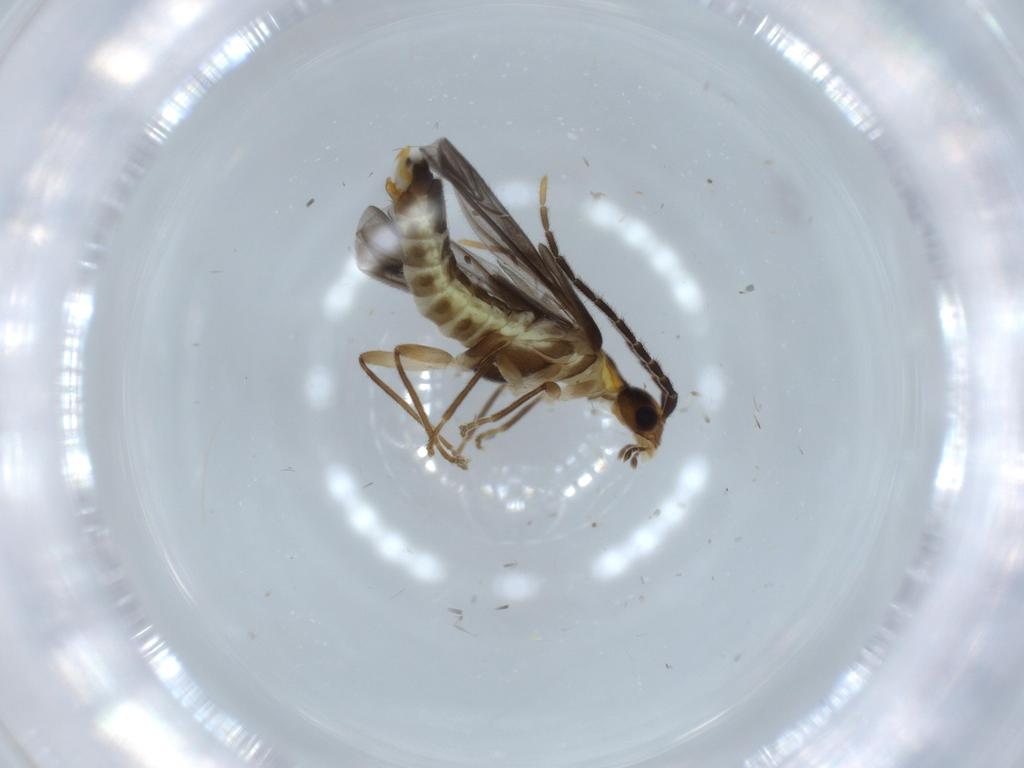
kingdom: Animalia
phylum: Arthropoda
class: Insecta
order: Coleoptera
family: Cantharidae
